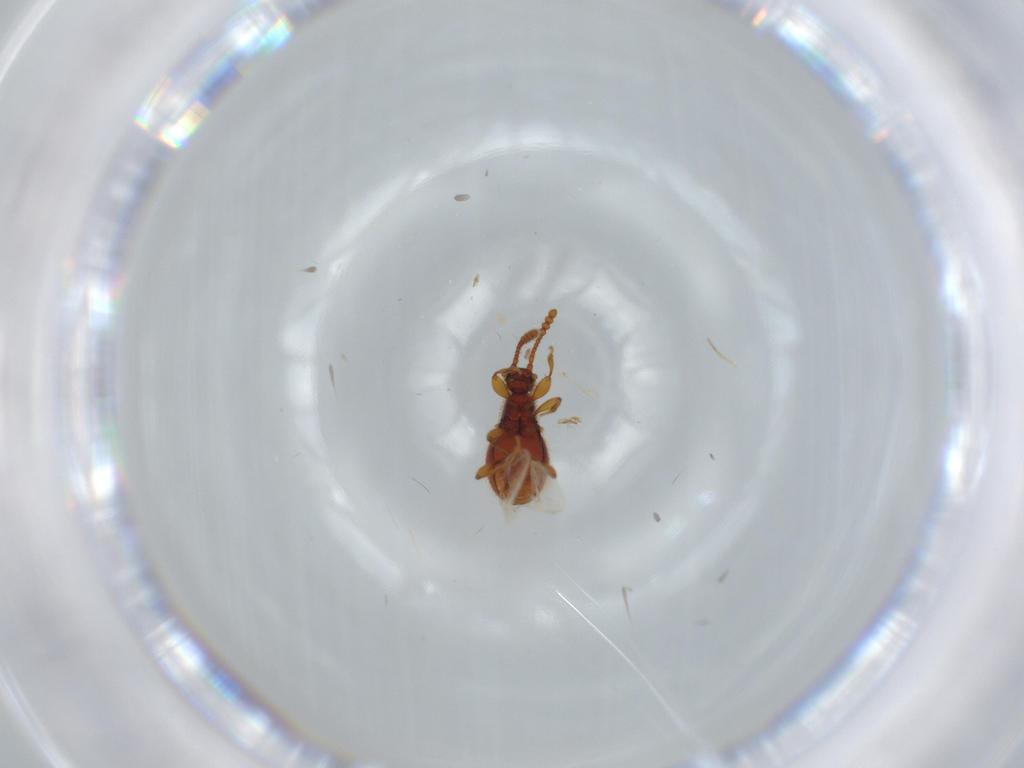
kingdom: Animalia
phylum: Arthropoda
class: Insecta
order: Coleoptera
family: Staphylinidae
